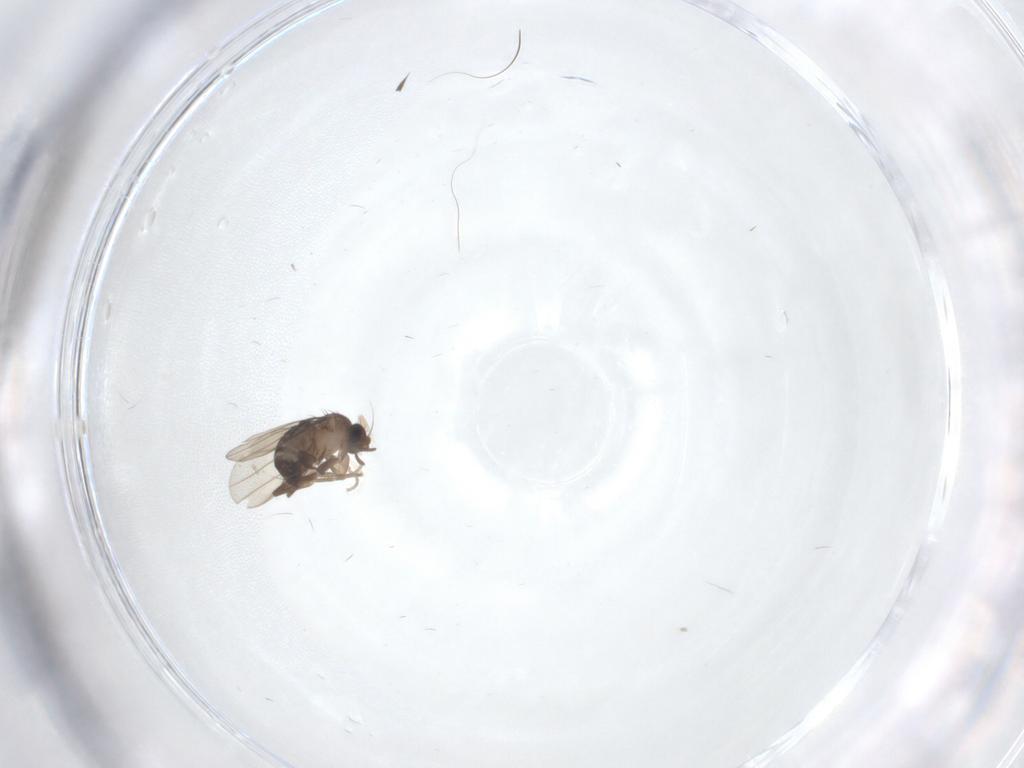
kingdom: Animalia
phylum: Arthropoda
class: Insecta
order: Diptera
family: Phoridae
